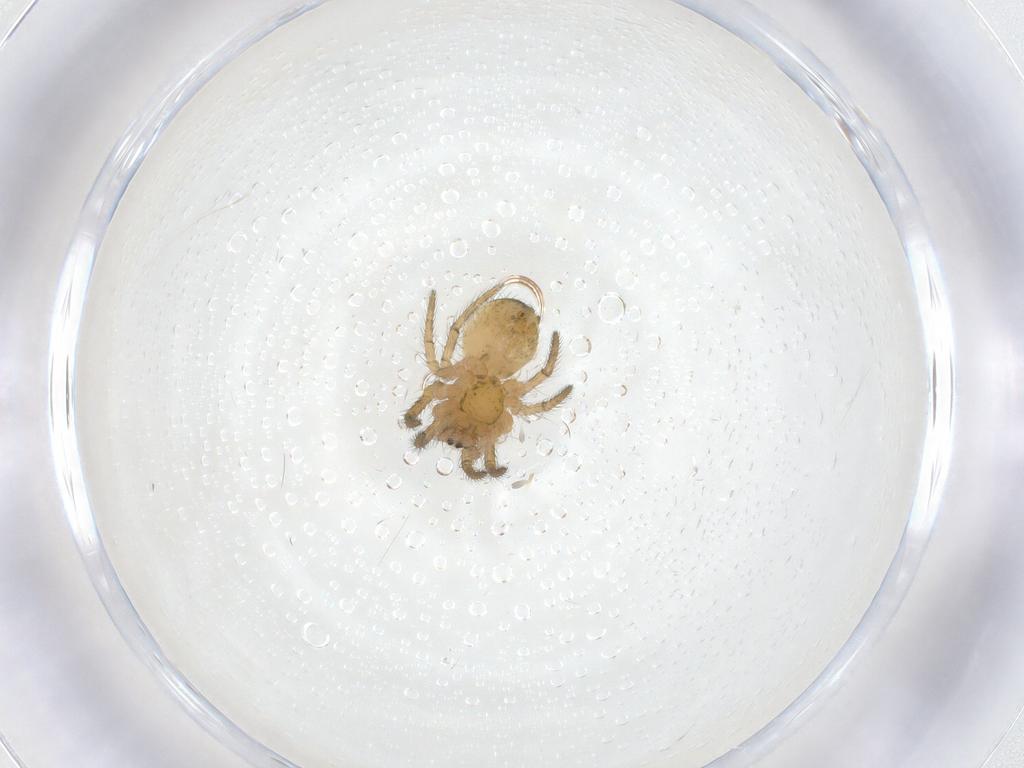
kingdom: Animalia
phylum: Arthropoda
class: Arachnida
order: Araneae
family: Araneidae
